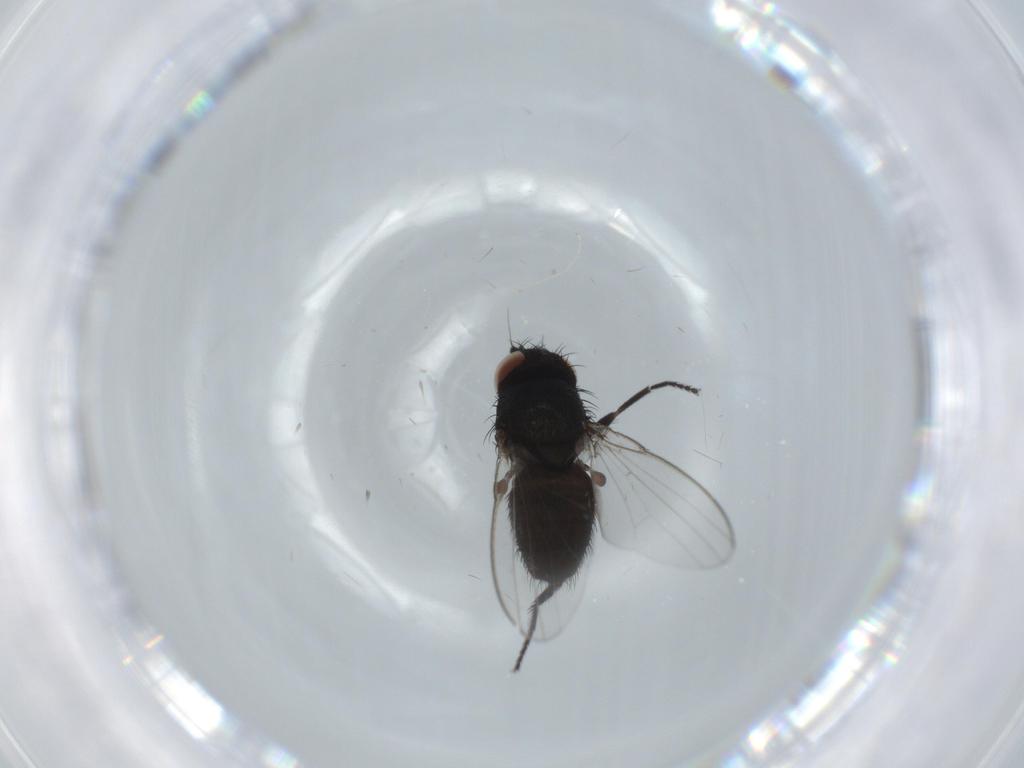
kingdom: Animalia
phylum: Arthropoda
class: Insecta
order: Diptera
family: Milichiidae
